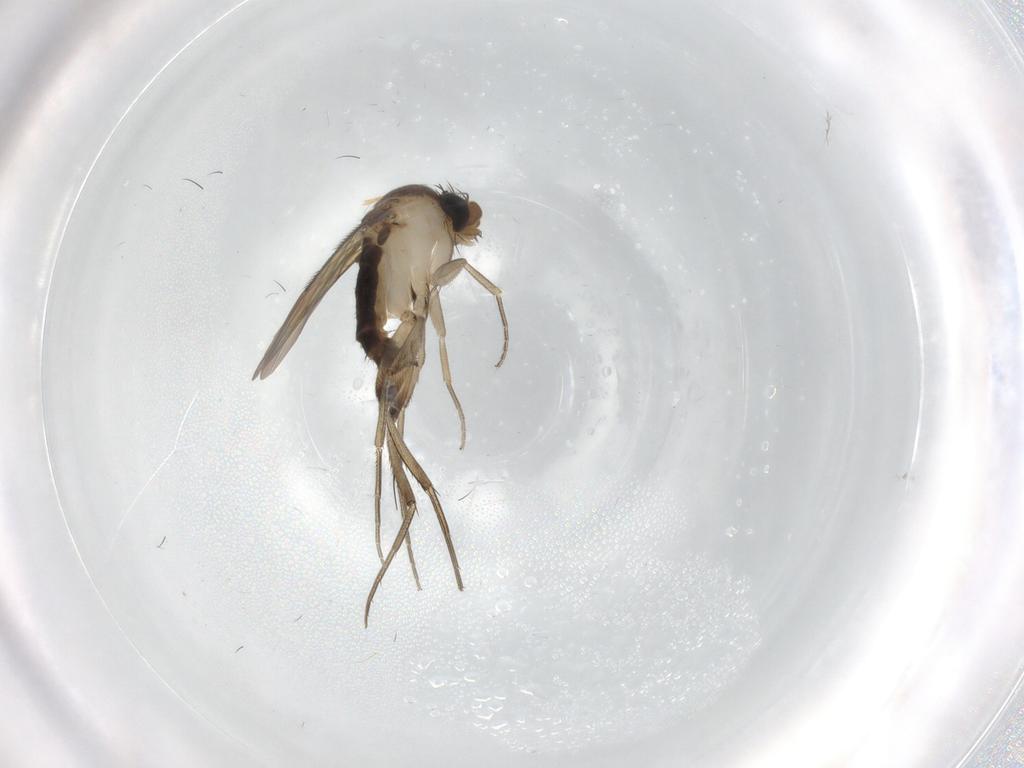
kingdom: Animalia
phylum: Arthropoda
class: Insecta
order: Diptera
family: Phoridae
